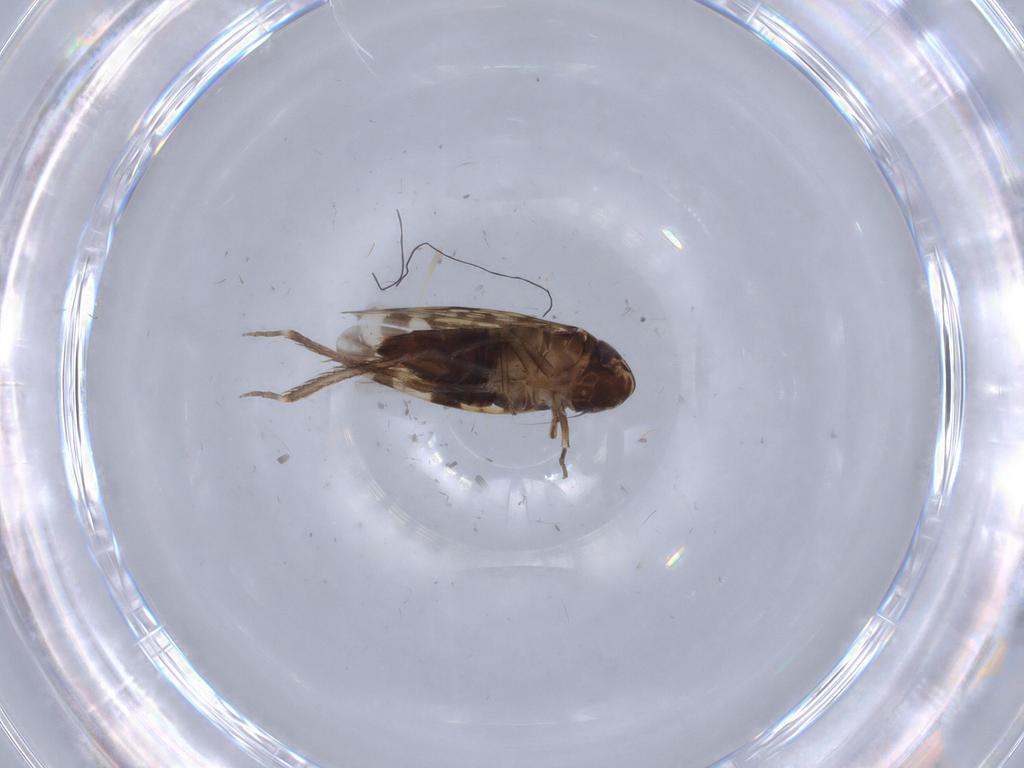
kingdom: Animalia
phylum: Arthropoda
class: Insecta
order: Hemiptera
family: Cicadellidae
